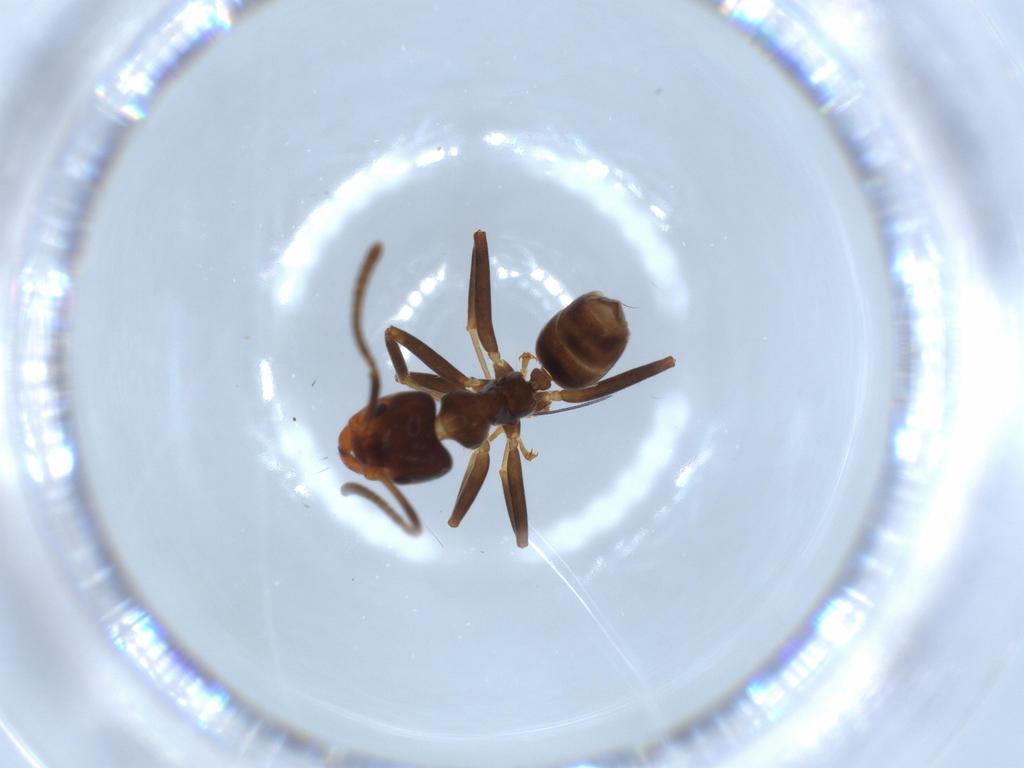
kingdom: Animalia
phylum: Arthropoda
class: Insecta
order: Hymenoptera
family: Formicidae
